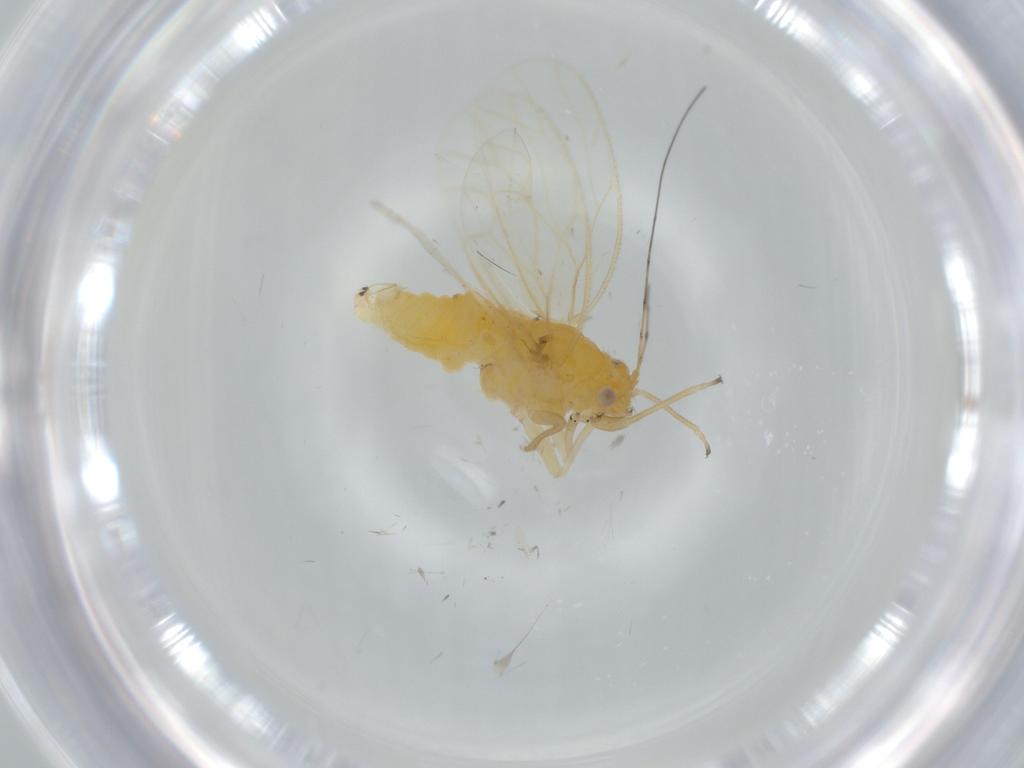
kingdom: Animalia
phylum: Arthropoda
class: Insecta
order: Hemiptera
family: Psyllidae
